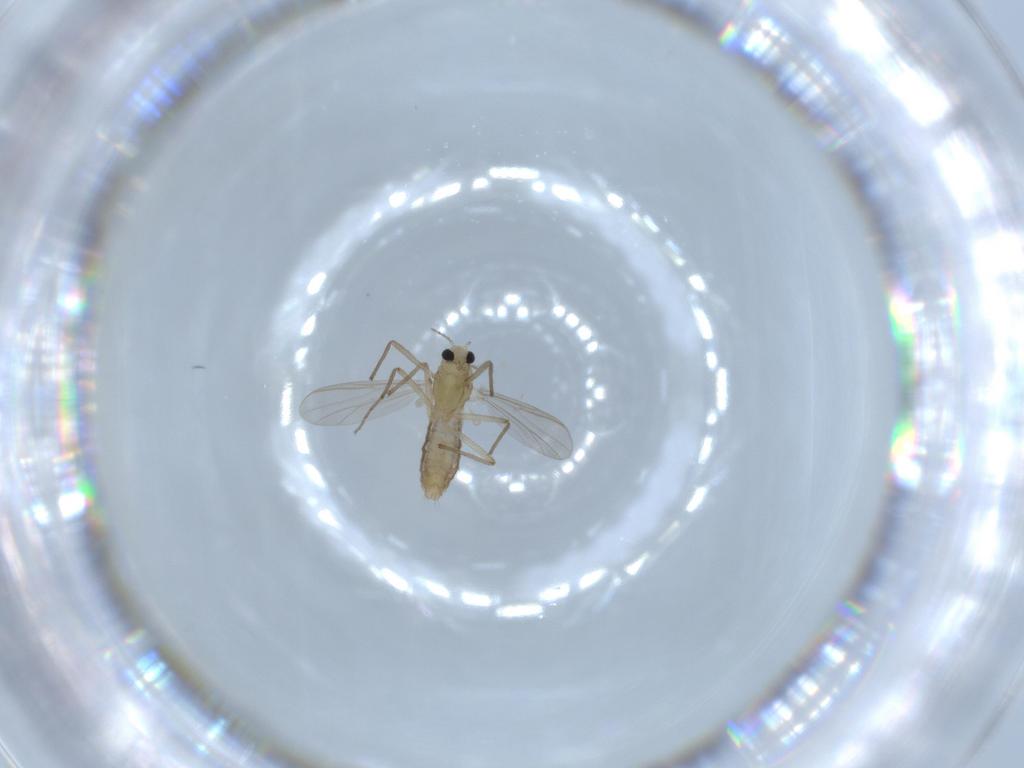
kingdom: Animalia
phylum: Arthropoda
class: Insecta
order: Diptera
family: Chironomidae
